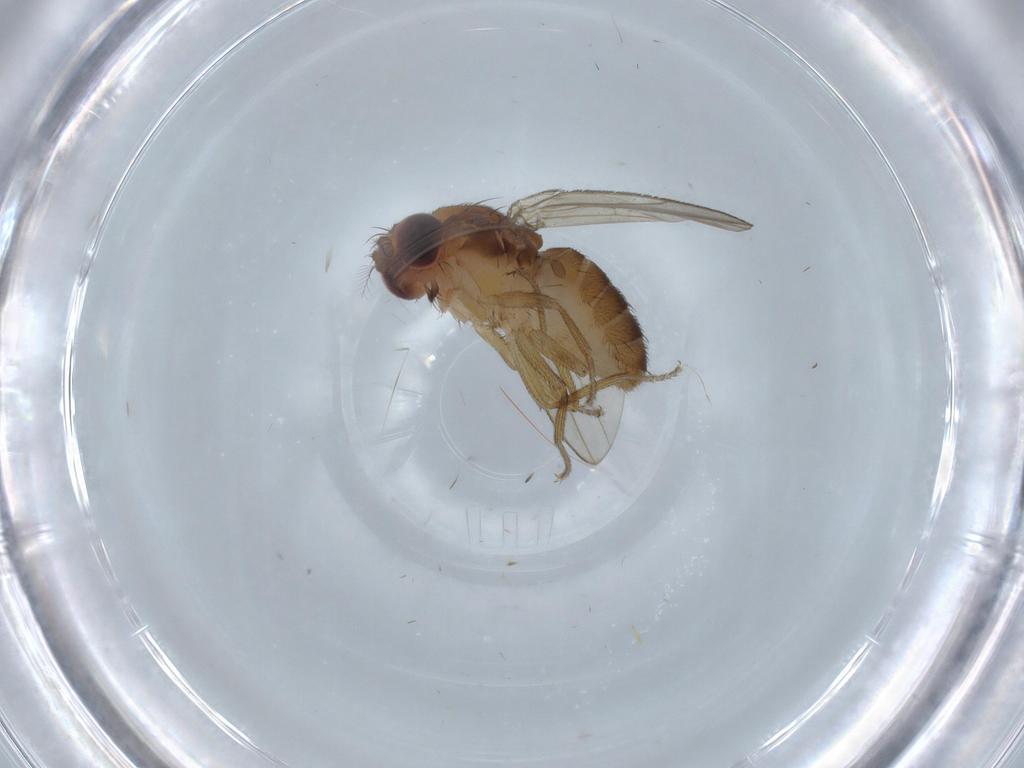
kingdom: Animalia
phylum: Arthropoda
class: Insecta
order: Diptera
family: Drosophilidae
